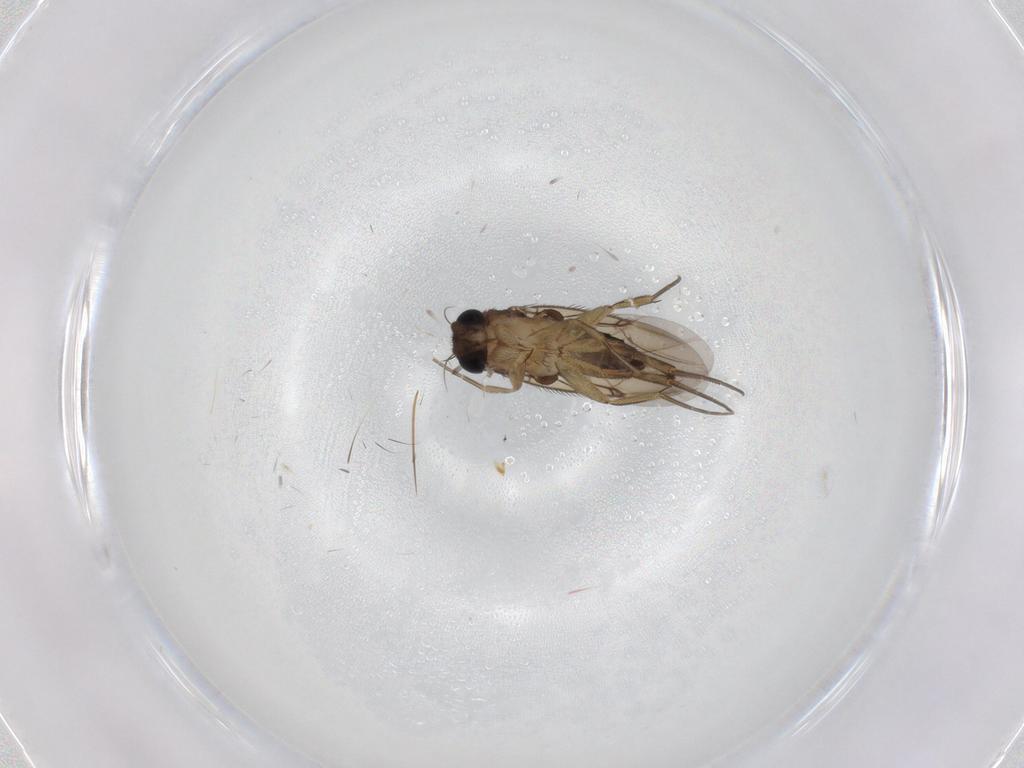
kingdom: Animalia
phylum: Arthropoda
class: Insecta
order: Diptera
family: Phoridae
